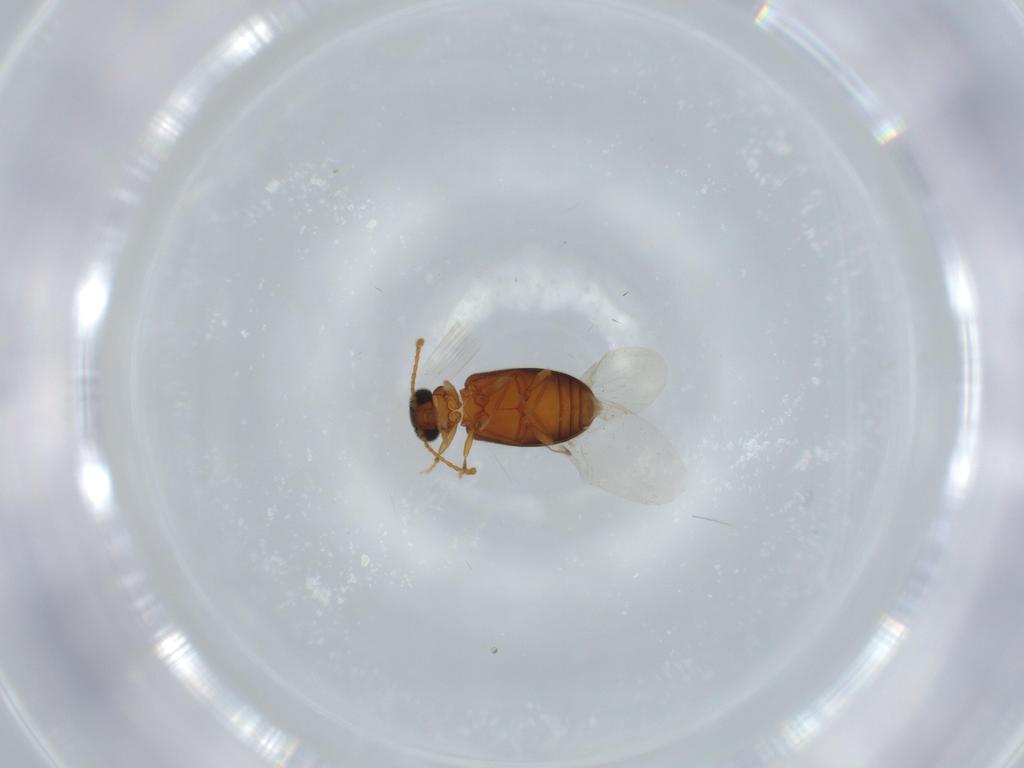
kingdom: Animalia
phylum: Arthropoda
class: Insecta
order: Coleoptera
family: Aderidae
